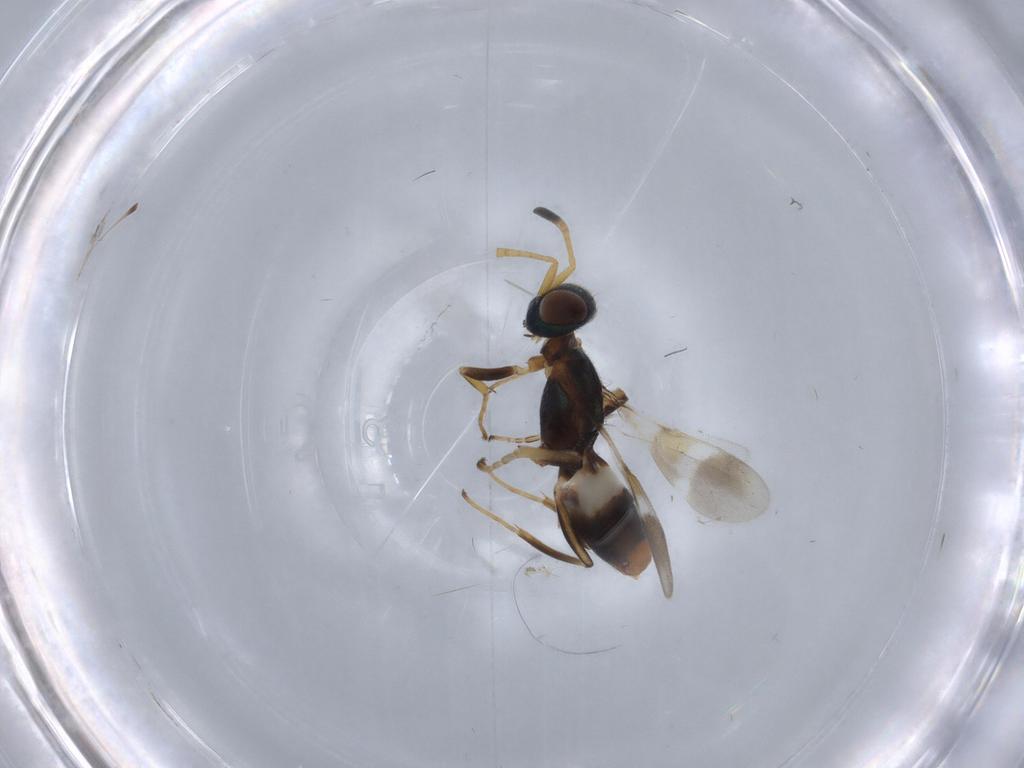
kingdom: Animalia
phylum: Arthropoda
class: Insecta
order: Hymenoptera
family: Eupelmidae
